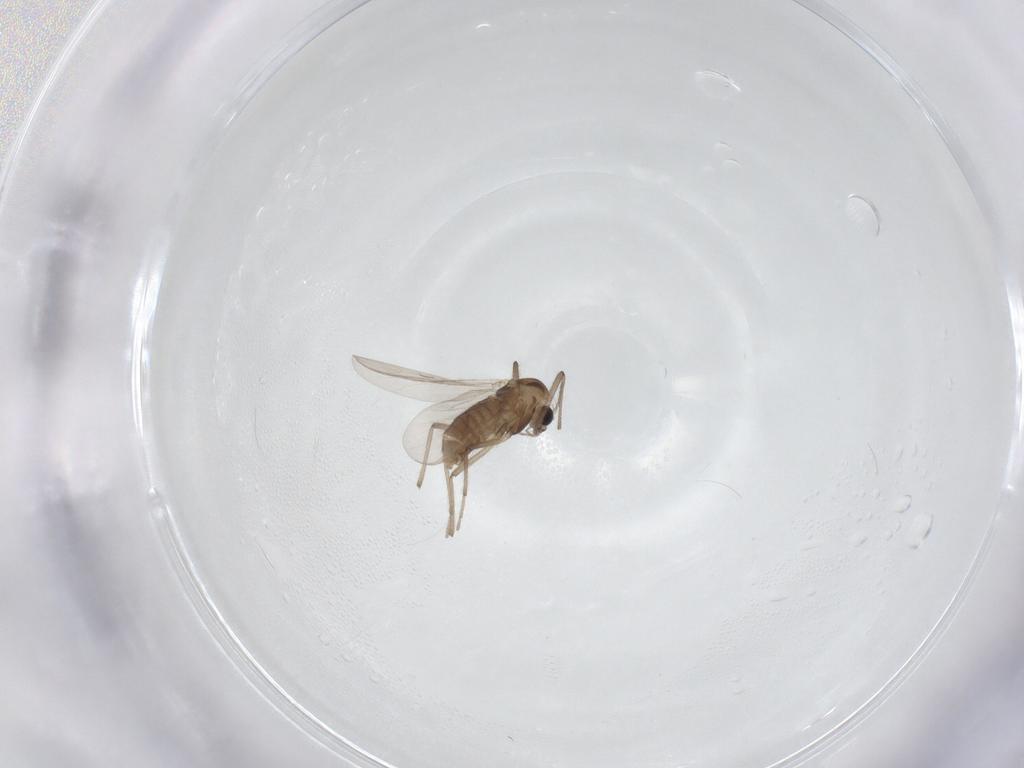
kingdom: Animalia
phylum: Arthropoda
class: Insecta
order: Diptera
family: Chironomidae
